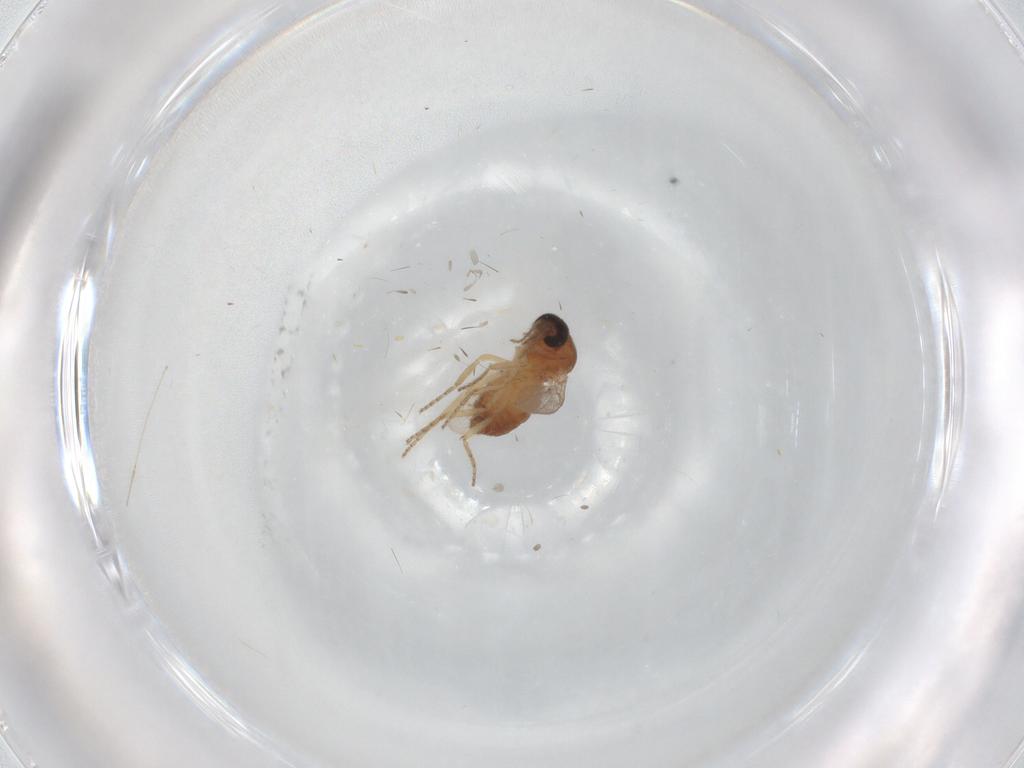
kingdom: Animalia
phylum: Arthropoda
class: Insecta
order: Diptera
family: Ceratopogonidae
